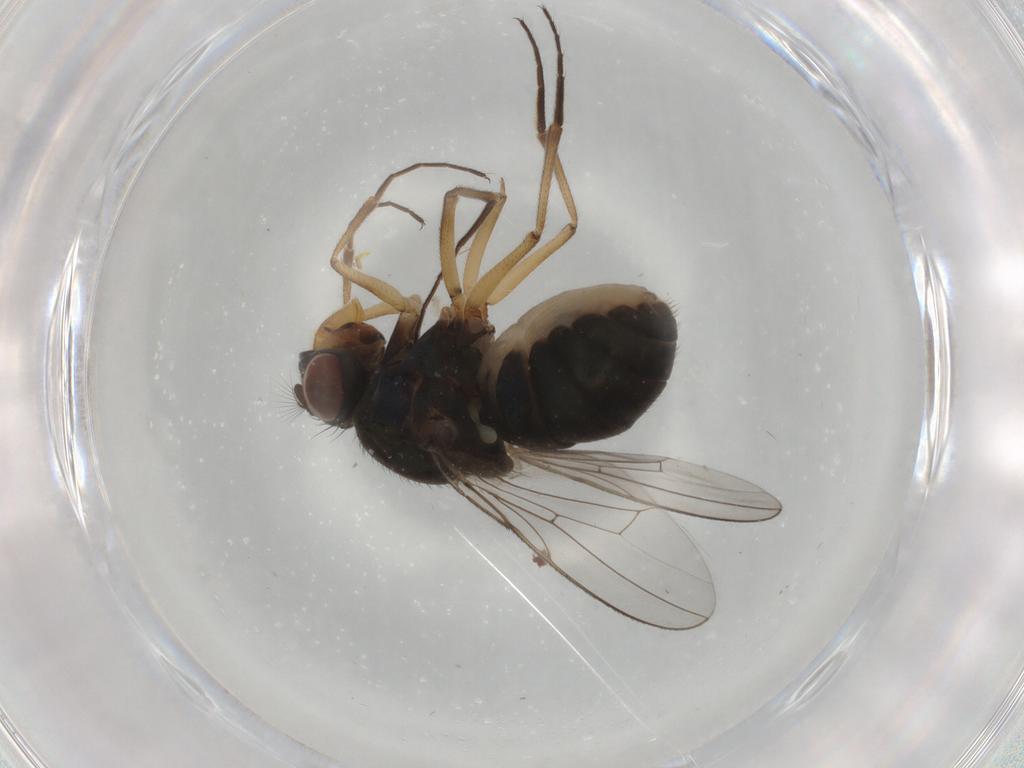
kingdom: Animalia
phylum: Arthropoda
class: Insecta
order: Diptera
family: Ephydridae
